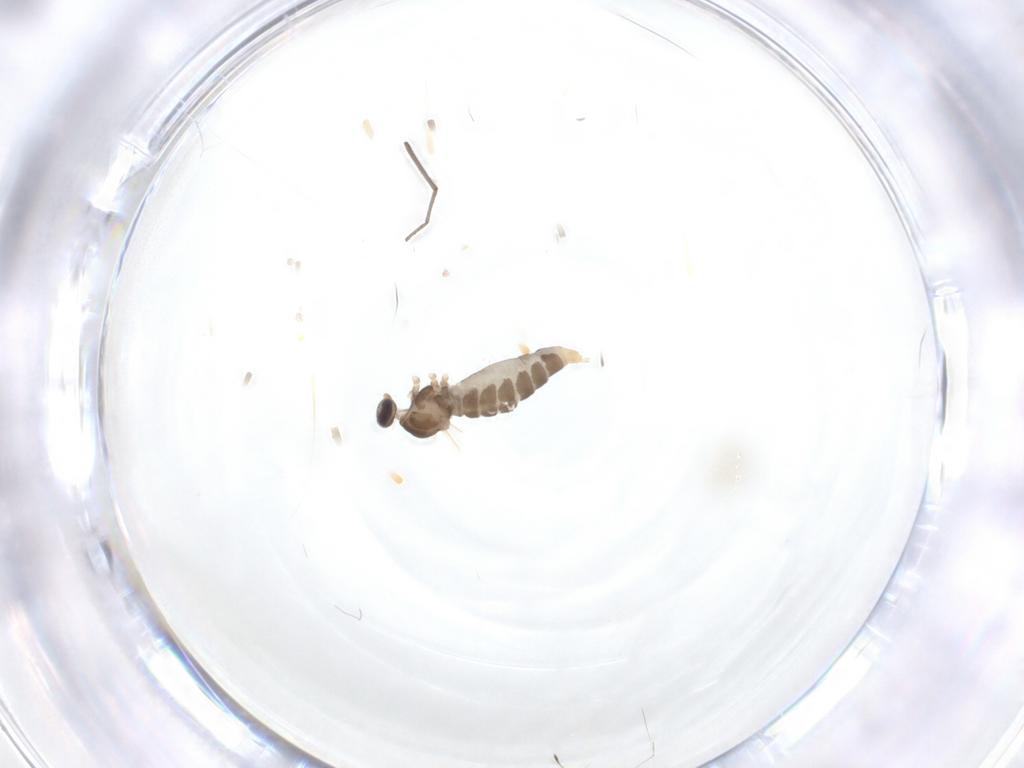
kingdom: Animalia
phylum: Arthropoda
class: Insecta
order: Diptera
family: Cecidomyiidae
